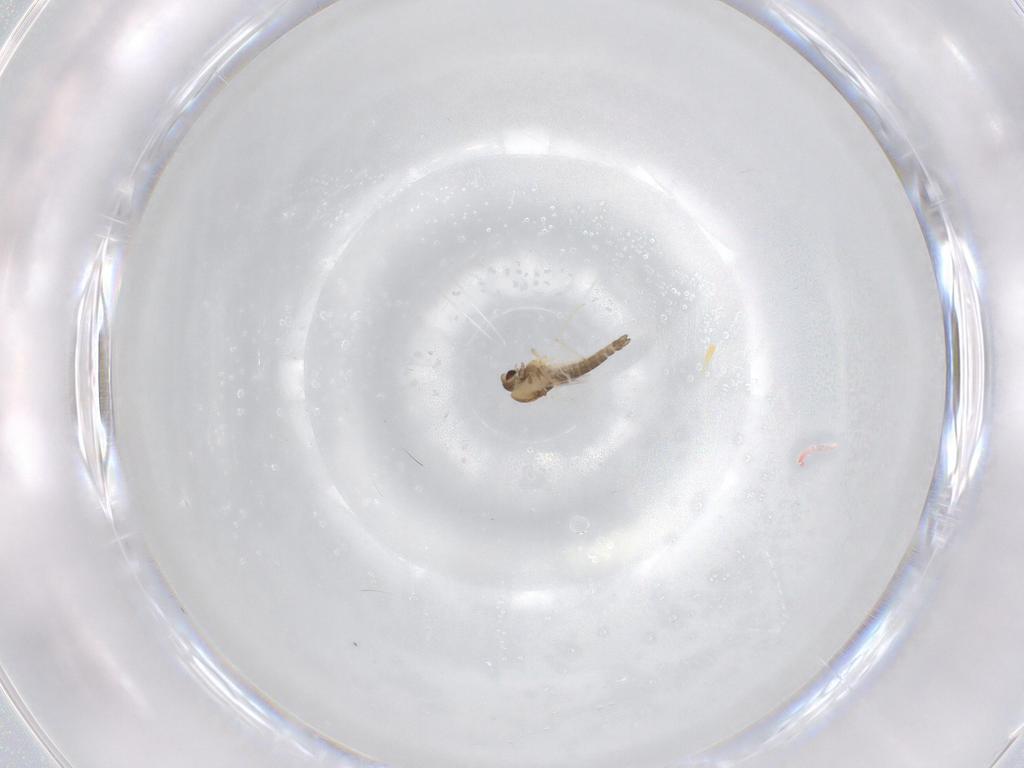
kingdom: Animalia
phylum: Arthropoda
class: Insecta
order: Diptera
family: Chironomidae
